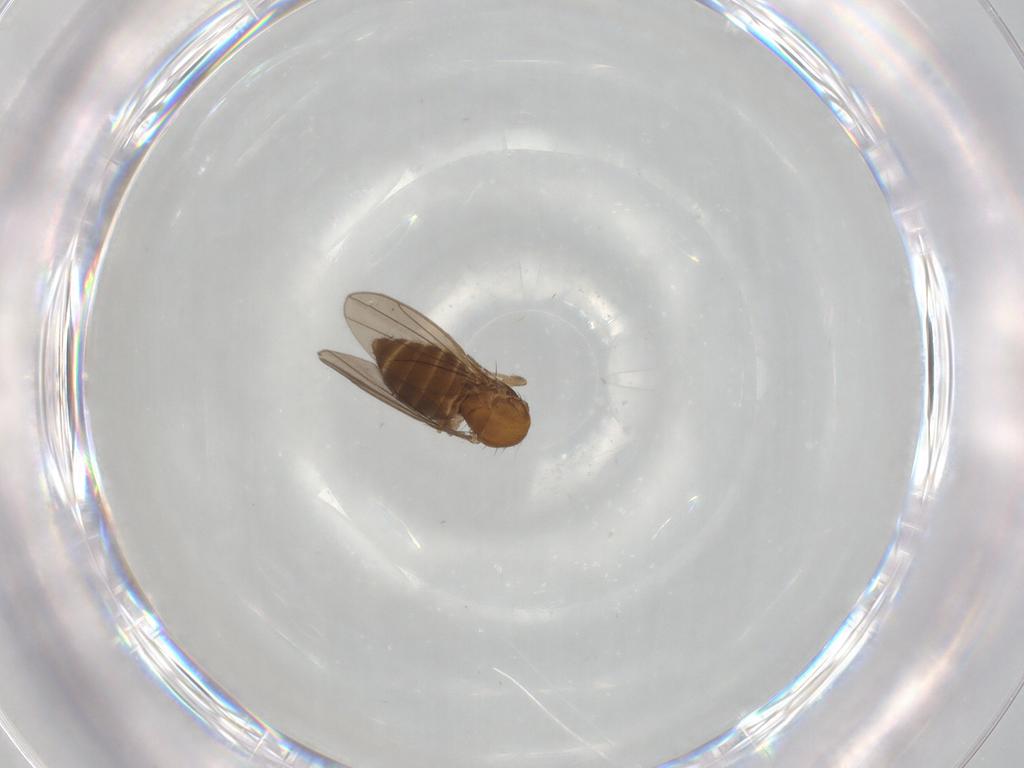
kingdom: Animalia
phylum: Arthropoda
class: Insecta
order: Diptera
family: Drosophilidae
